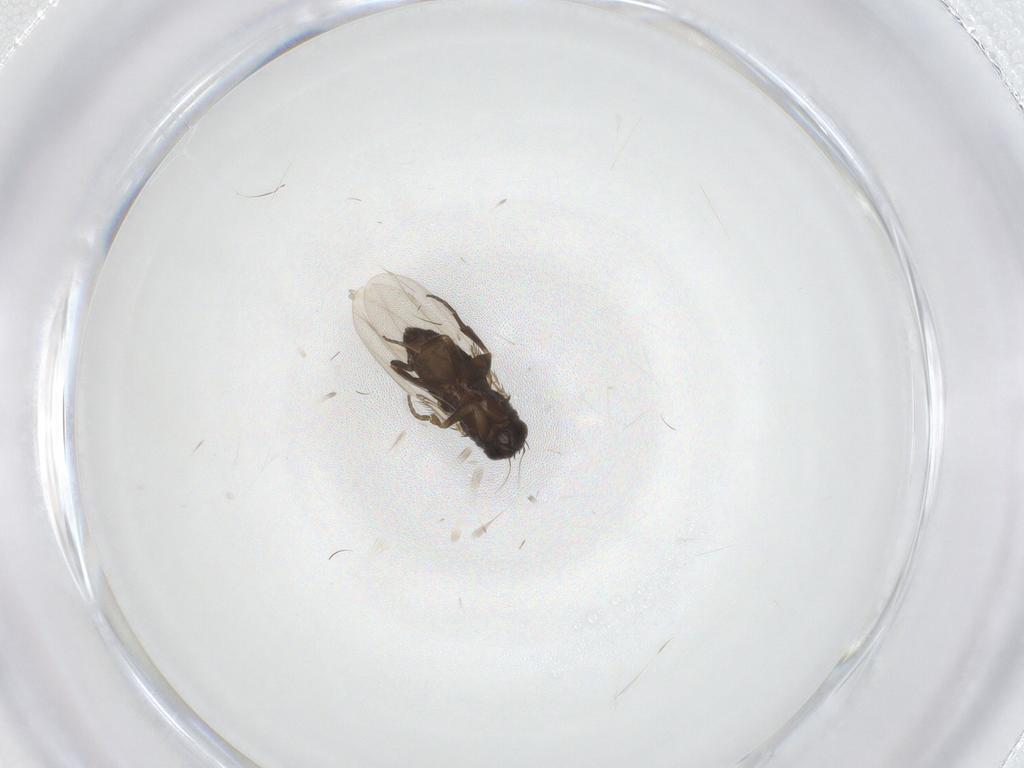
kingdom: Animalia
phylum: Arthropoda
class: Insecta
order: Diptera
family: Phoridae
